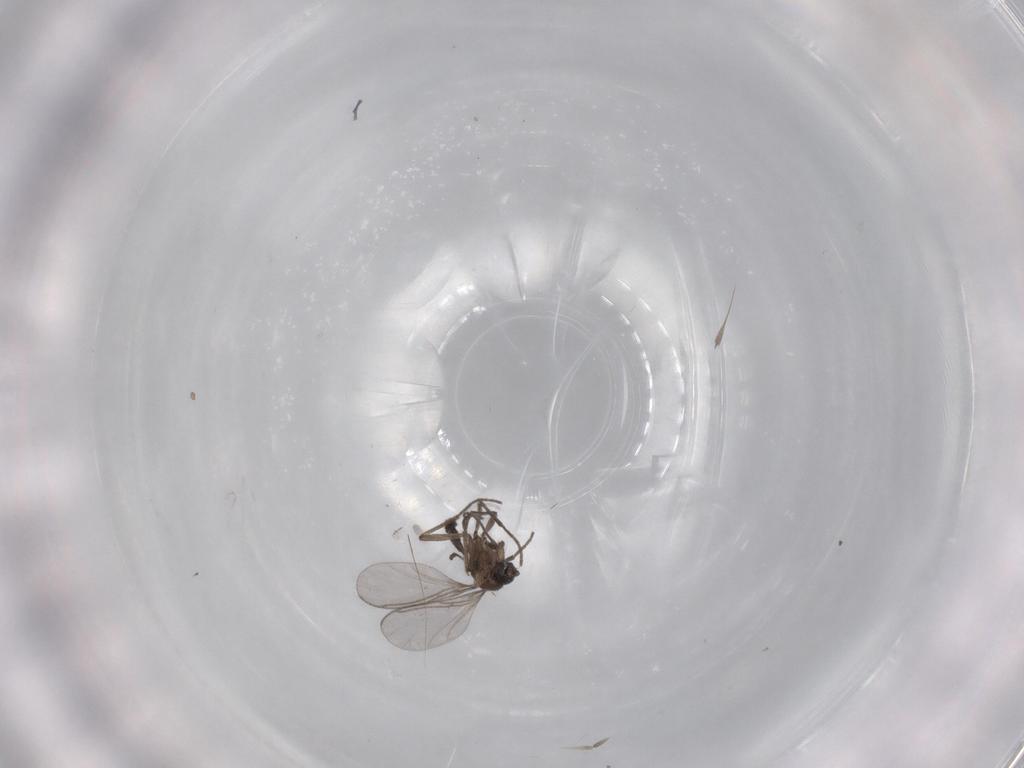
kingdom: Animalia
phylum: Arthropoda
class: Insecta
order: Diptera
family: Sciaridae
